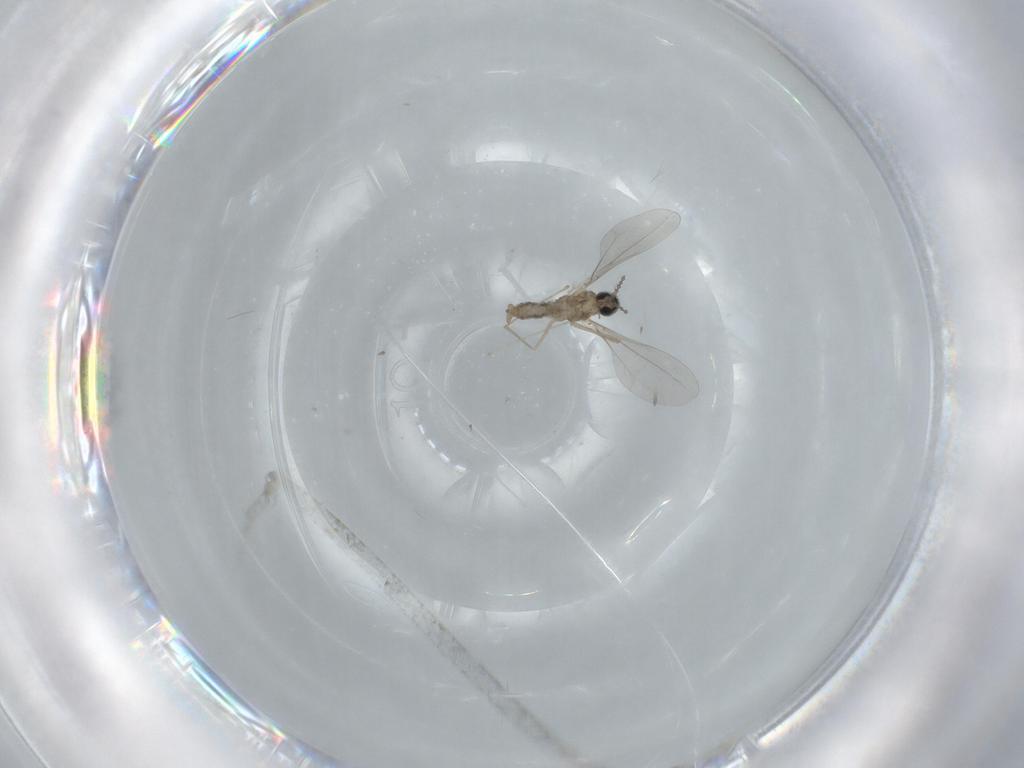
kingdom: Animalia
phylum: Arthropoda
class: Insecta
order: Diptera
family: Cecidomyiidae
